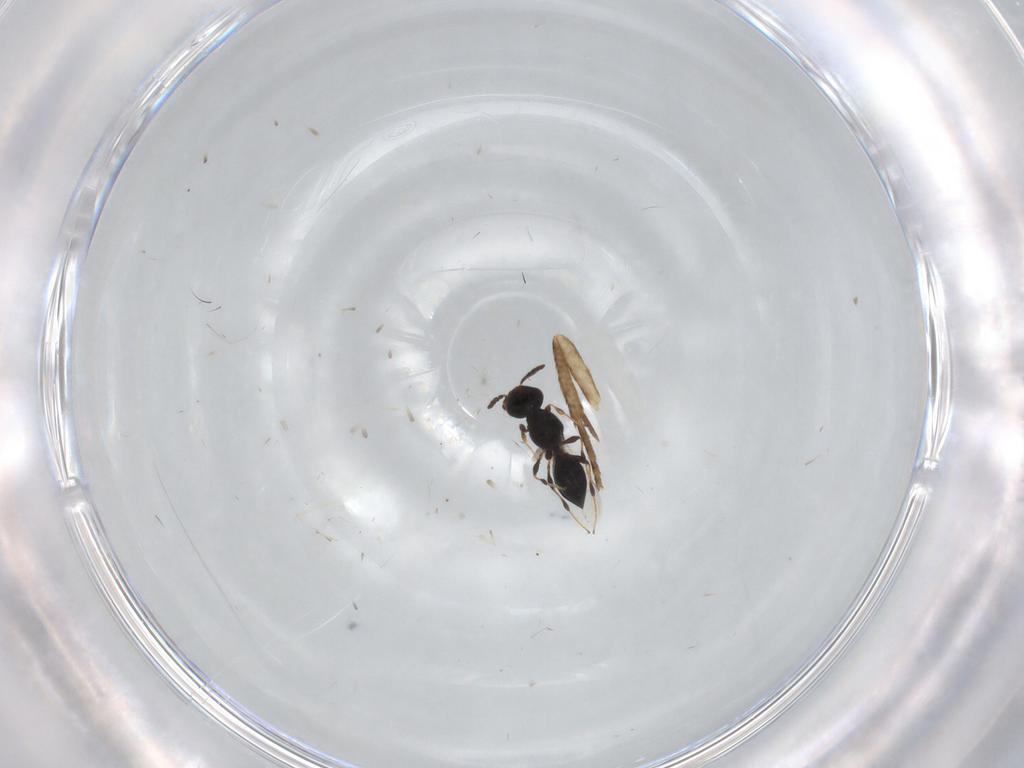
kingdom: Animalia
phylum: Arthropoda
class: Insecta
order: Hymenoptera
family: Platygastridae
